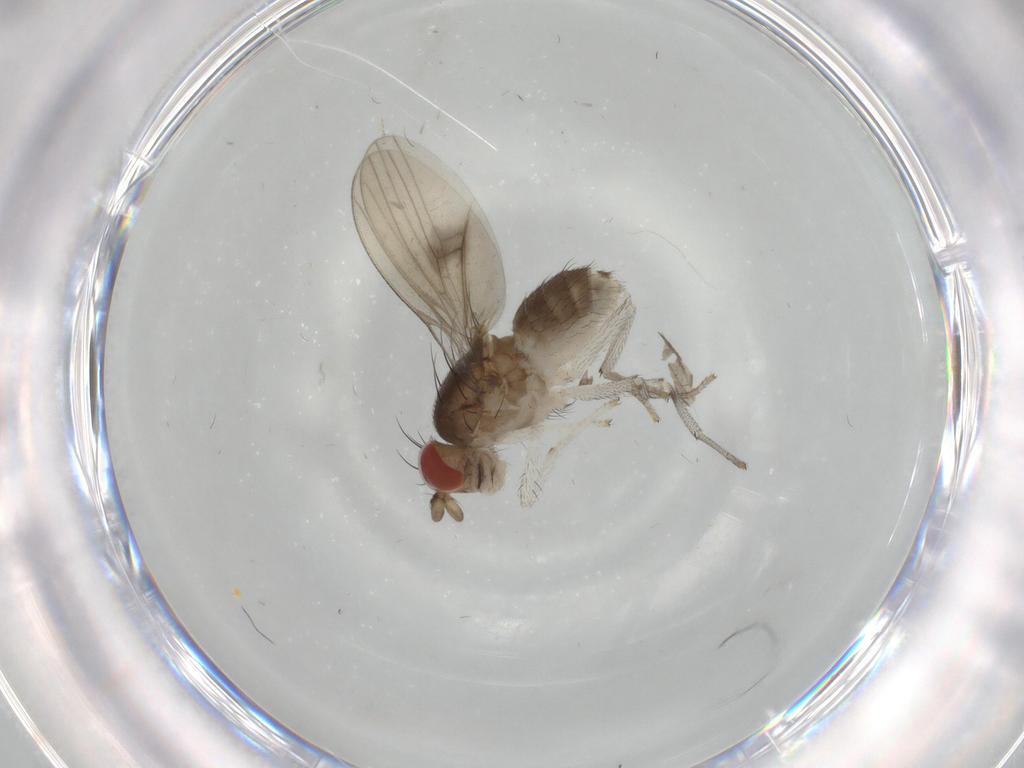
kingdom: Animalia
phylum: Arthropoda
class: Insecta
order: Diptera
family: Chironomidae
